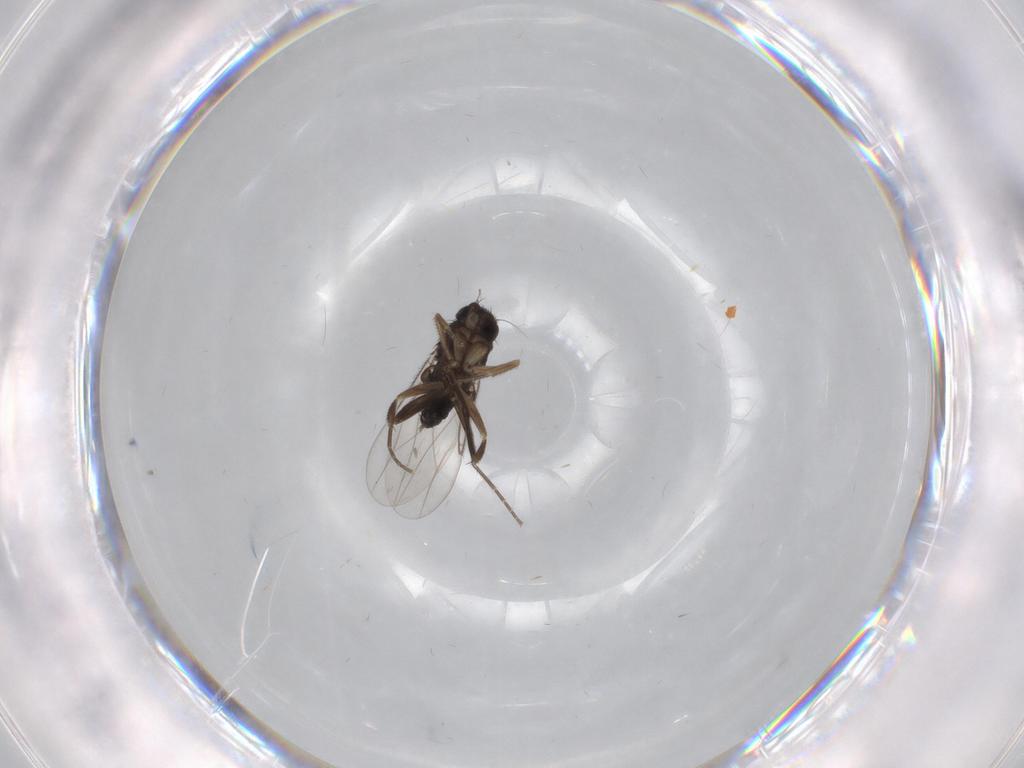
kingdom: Animalia
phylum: Arthropoda
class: Insecta
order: Diptera
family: Phoridae
